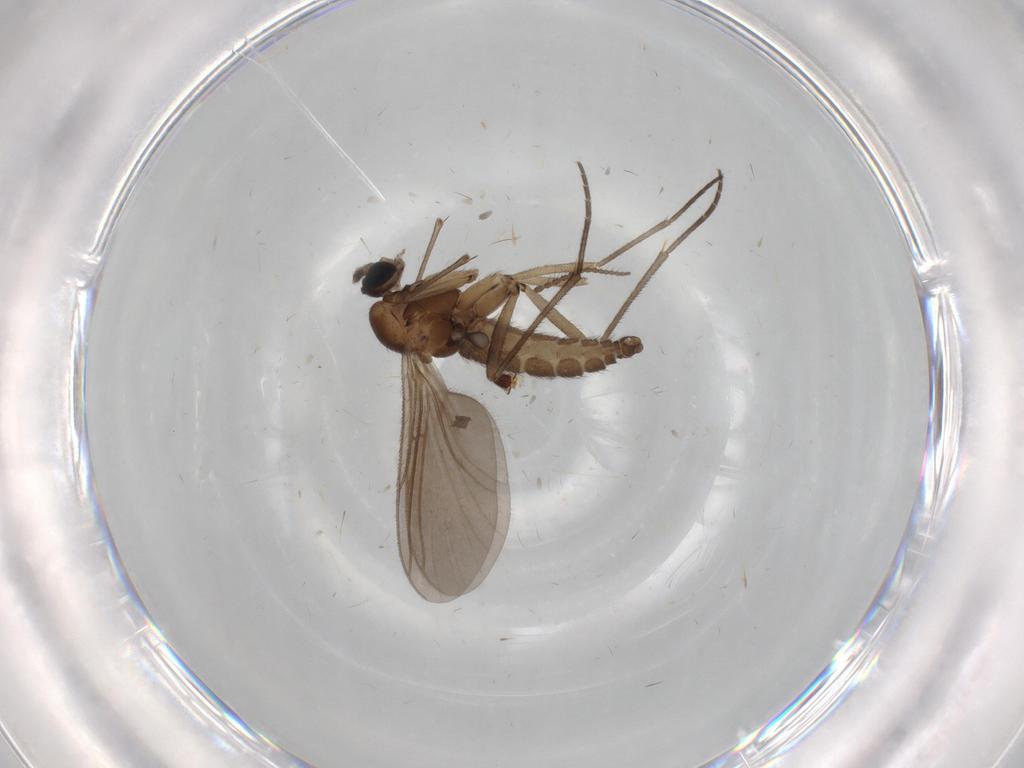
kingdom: Animalia
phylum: Arthropoda
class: Insecta
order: Diptera
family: Sciaridae
